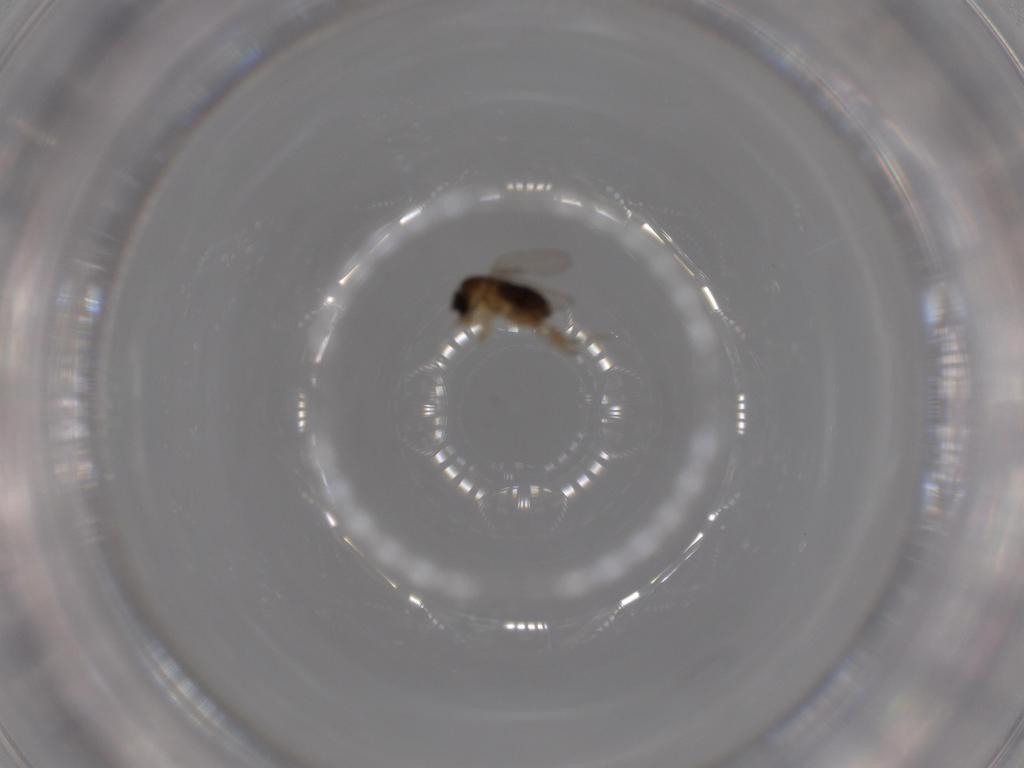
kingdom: Animalia
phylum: Arthropoda
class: Insecta
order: Diptera
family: Phoridae
